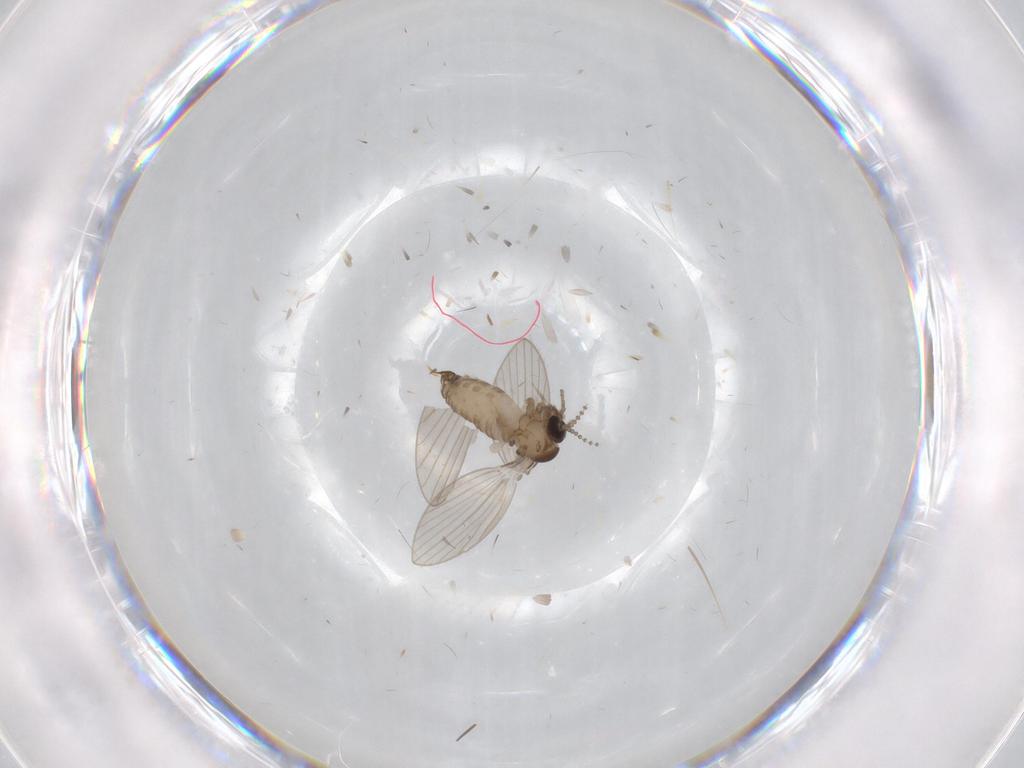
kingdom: Animalia
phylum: Arthropoda
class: Insecta
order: Diptera
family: Psychodidae
